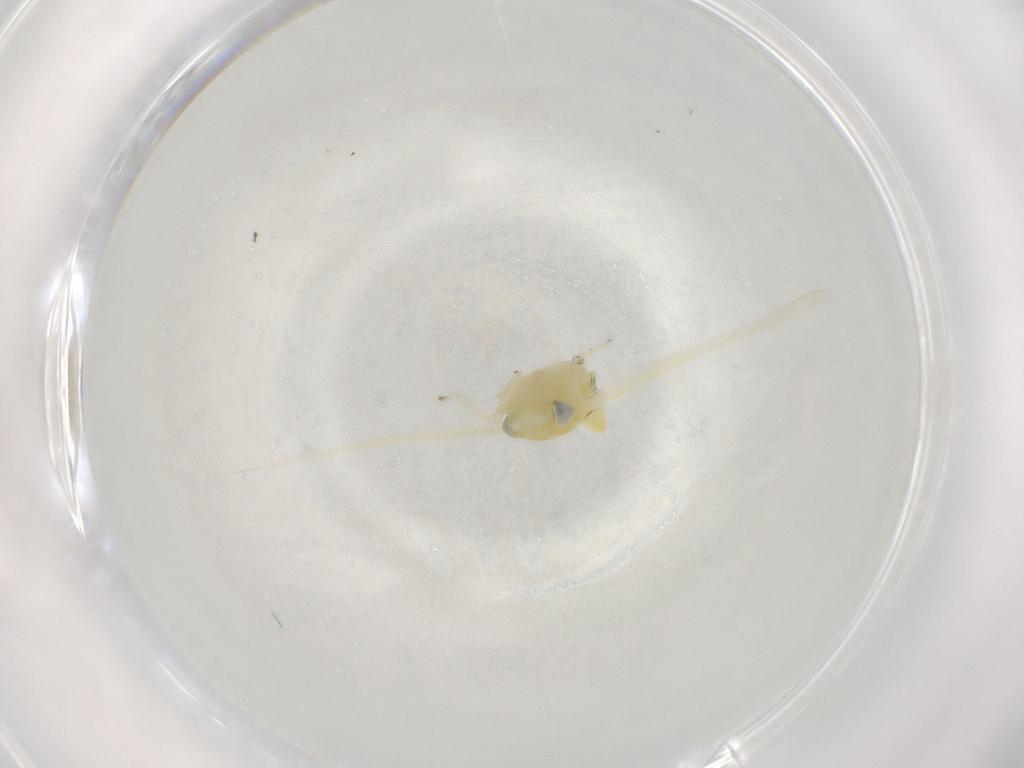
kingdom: Animalia
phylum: Arthropoda
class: Insecta
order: Hemiptera
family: Cicadellidae
